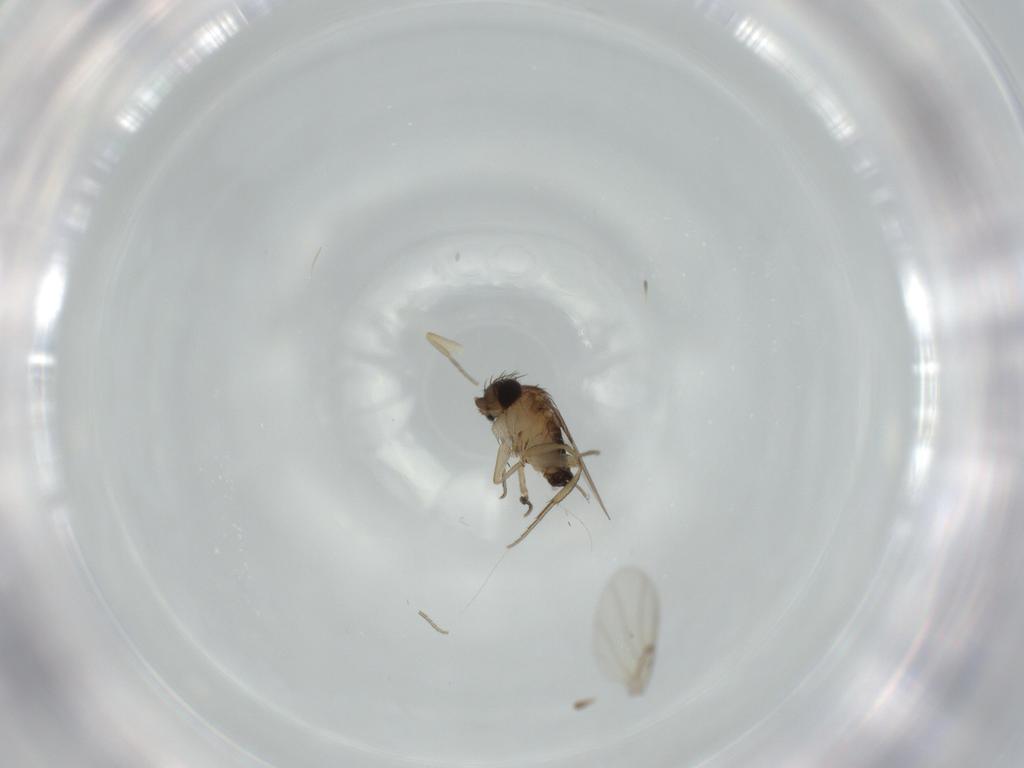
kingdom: Animalia
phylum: Arthropoda
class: Insecta
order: Diptera
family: Phoridae
